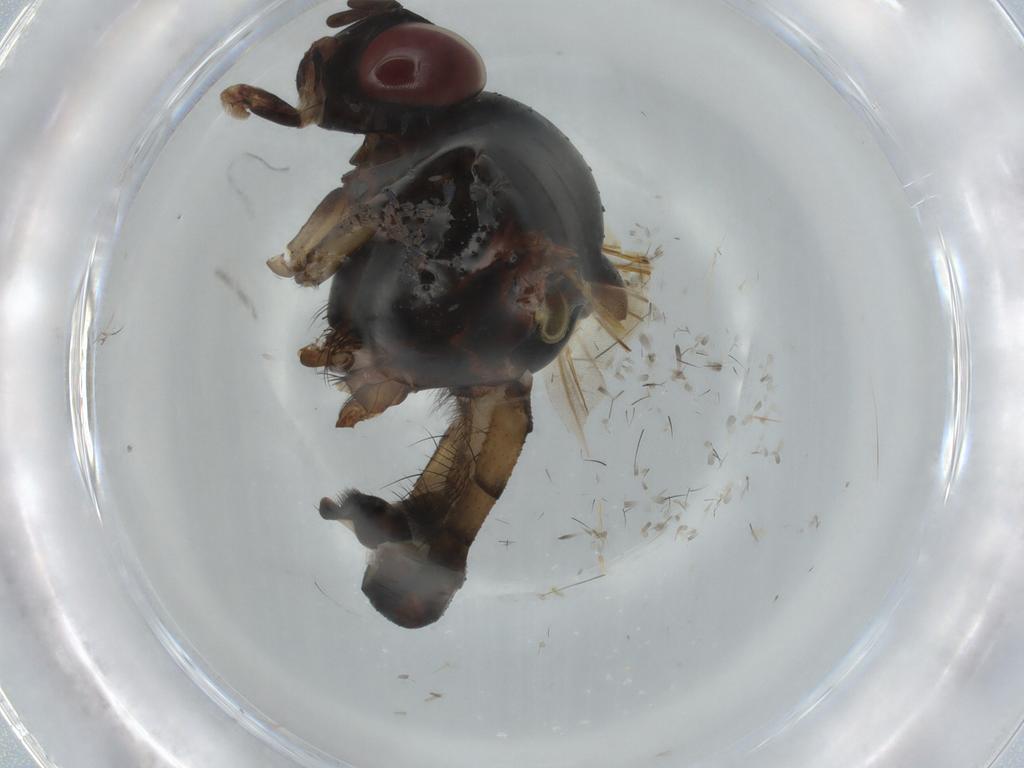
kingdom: Animalia
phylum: Arthropoda
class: Insecta
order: Diptera
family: Anthomyiidae
